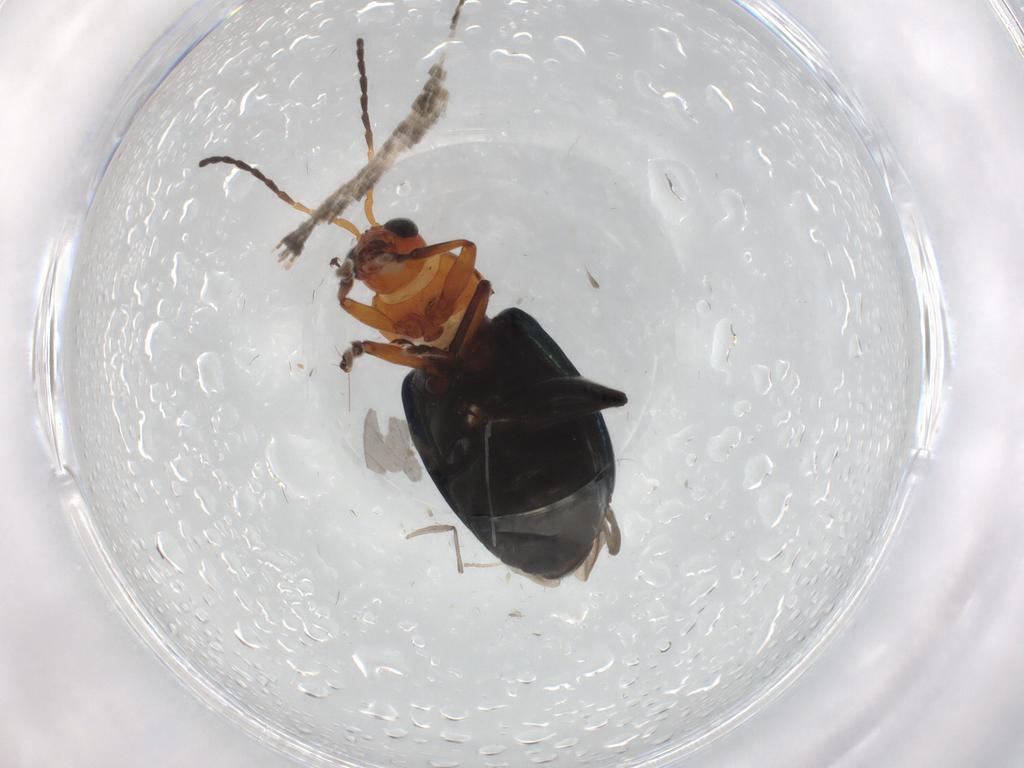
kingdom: Animalia
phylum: Arthropoda
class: Insecta
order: Coleoptera
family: Chrysomelidae
